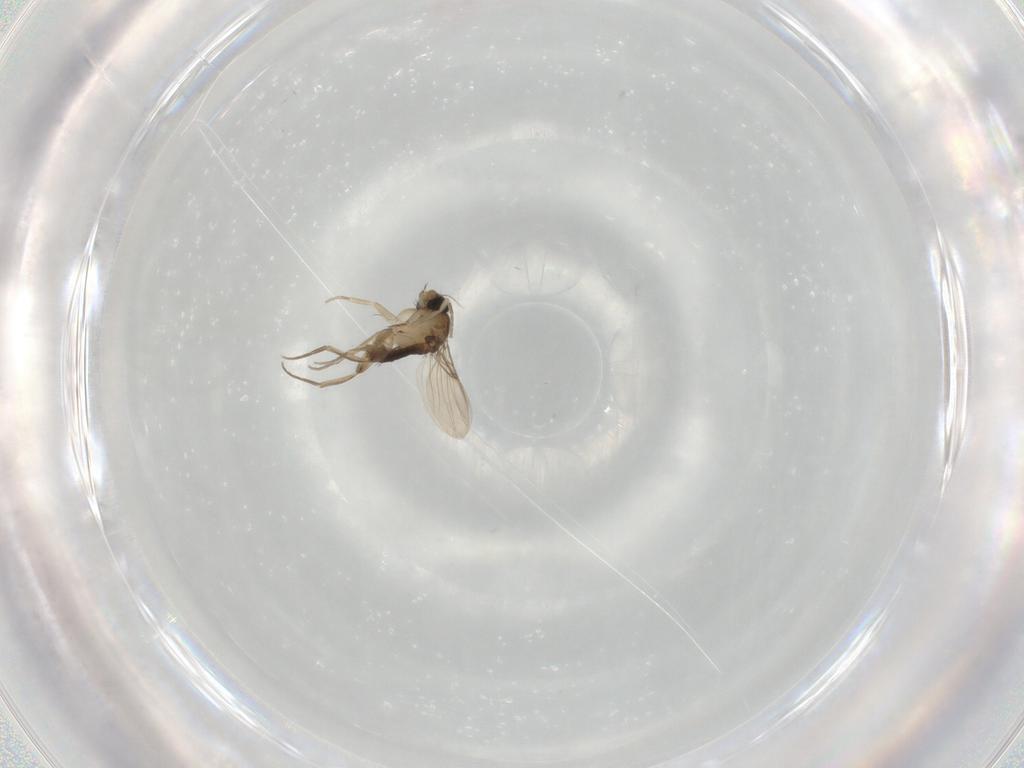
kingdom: Animalia
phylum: Arthropoda
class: Insecta
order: Diptera
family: Phoridae
